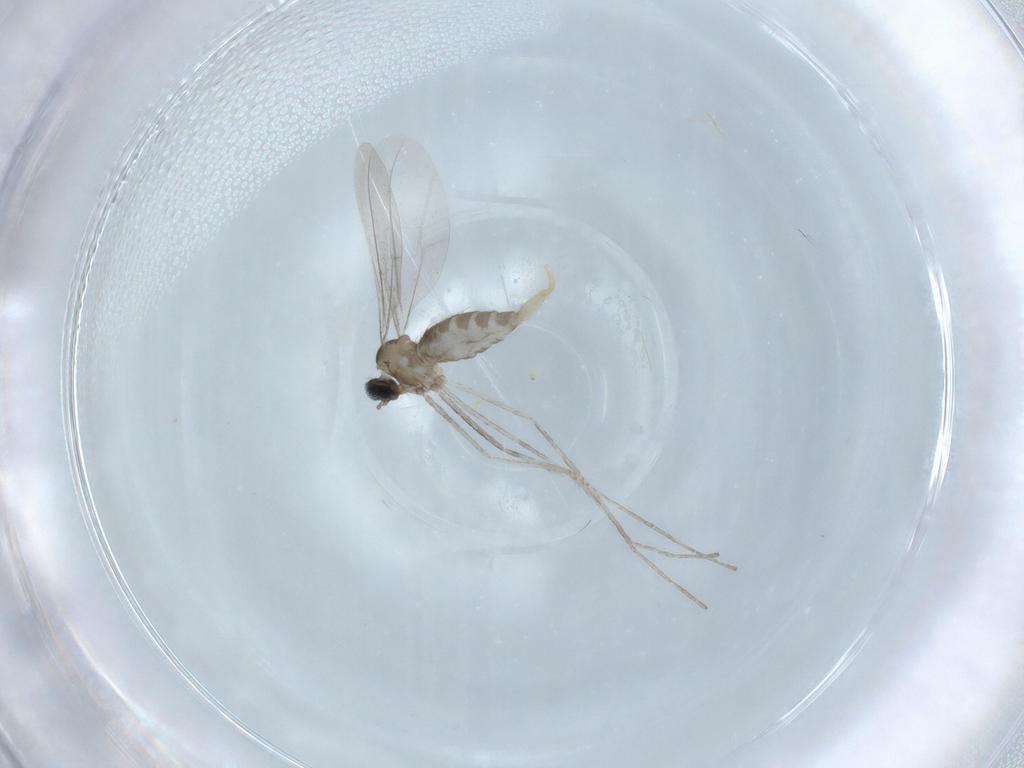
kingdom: Animalia
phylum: Arthropoda
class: Insecta
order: Diptera
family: Cecidomyiidae
